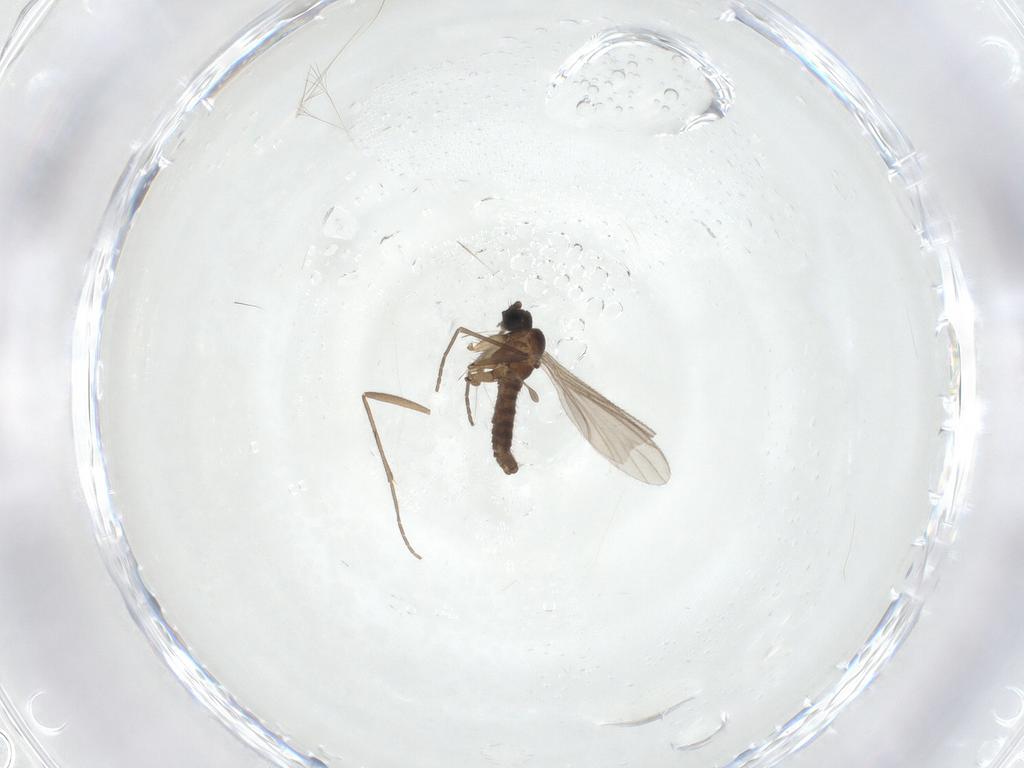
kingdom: Animalia
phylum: Arthropoda
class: Insecta
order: Diptera
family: Sciaridae
